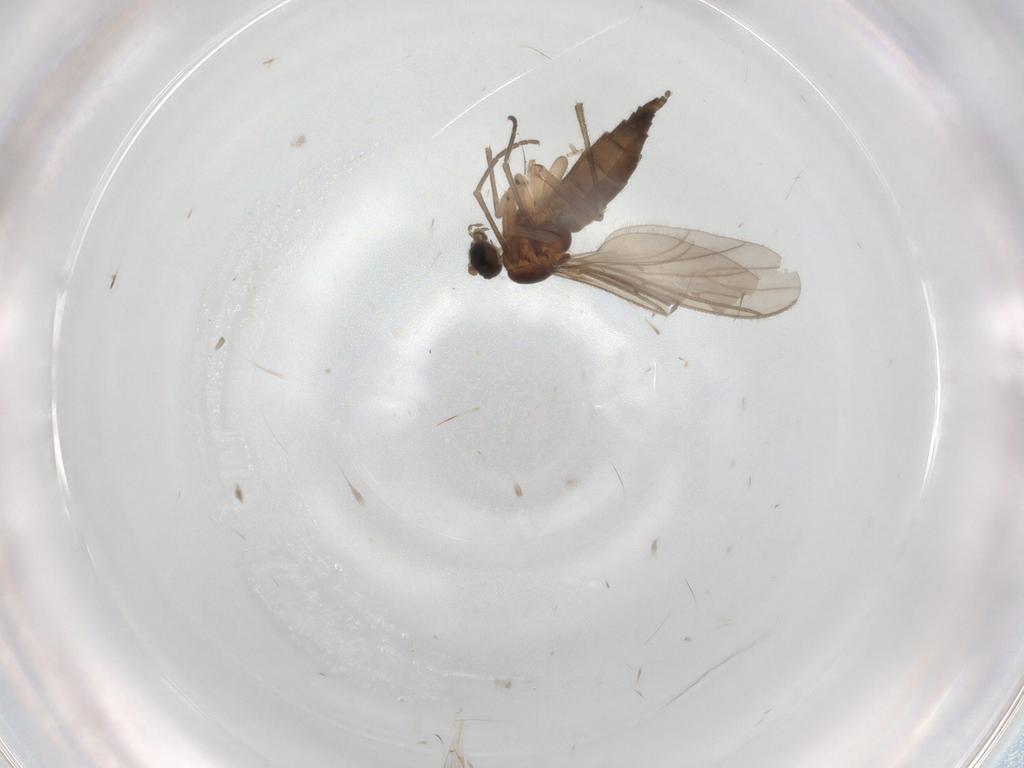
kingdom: Animalia
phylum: Arthropoda
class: Insecta
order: Diptera
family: Sciaridae
